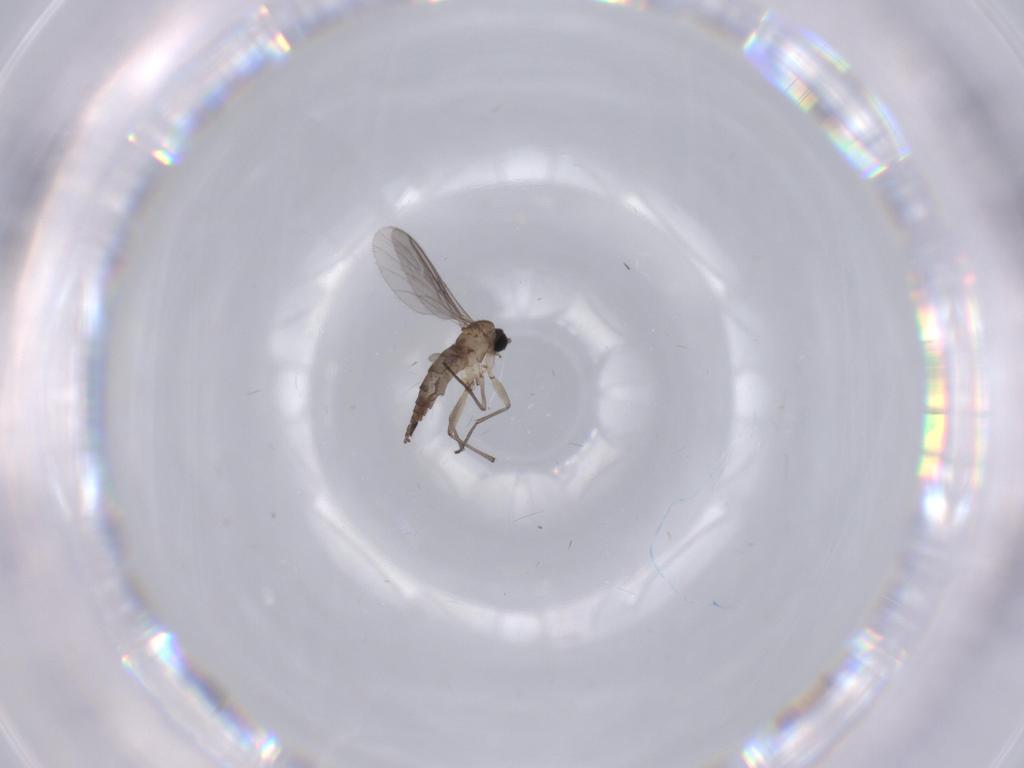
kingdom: Animalia
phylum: Arthropoda
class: Insecta
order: Diptera
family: Sciaridae
